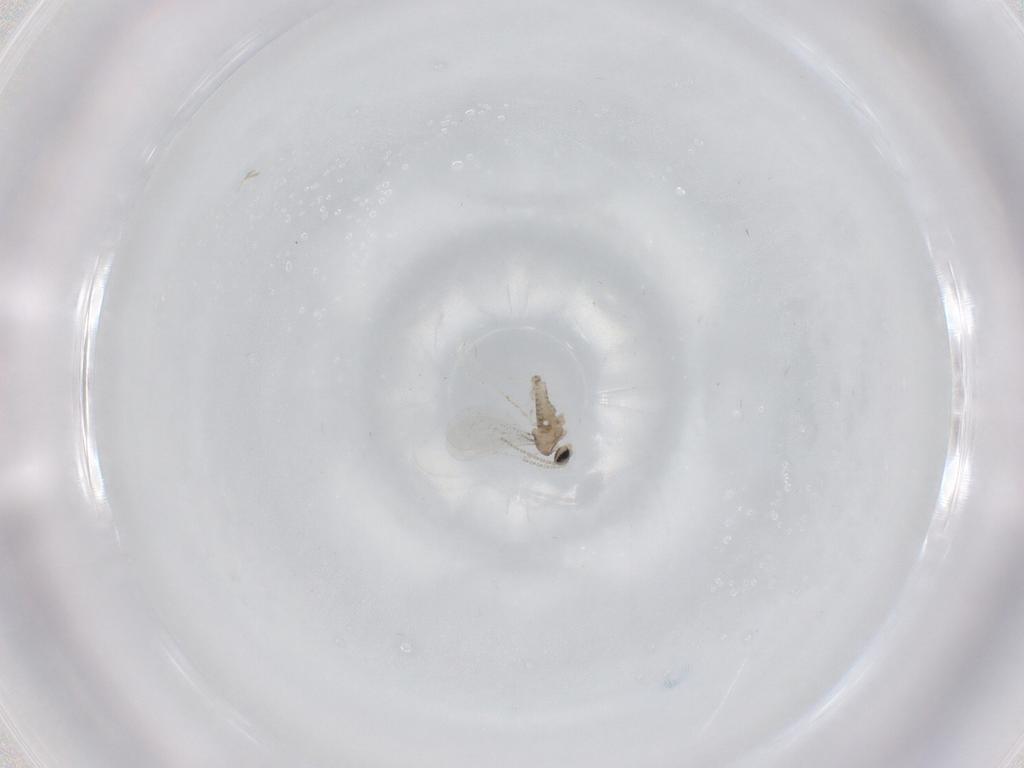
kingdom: Animalia
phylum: Arthropoda
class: Insecta
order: Diptera
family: Cecidomyiidae
